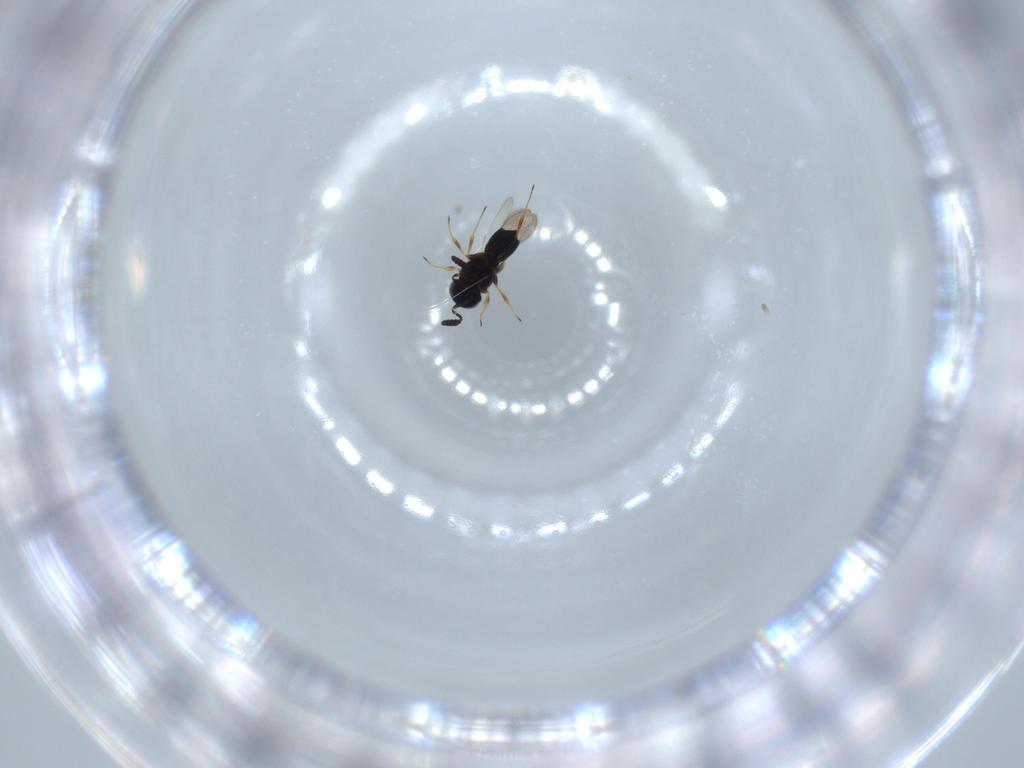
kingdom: Animalia
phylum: Arthropoda
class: Insecta
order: Hymenoptera
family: Scelionidae
